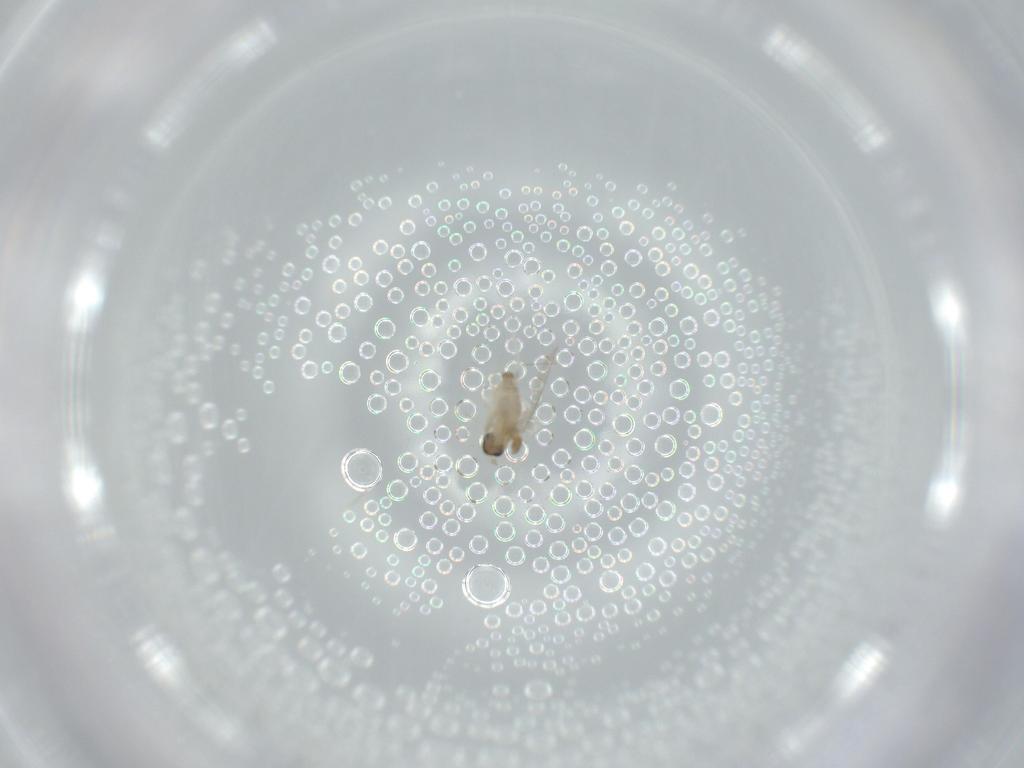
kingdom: Animalia
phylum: Arthropoda
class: Insecta
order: Diptera
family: Cecidomyiidae
